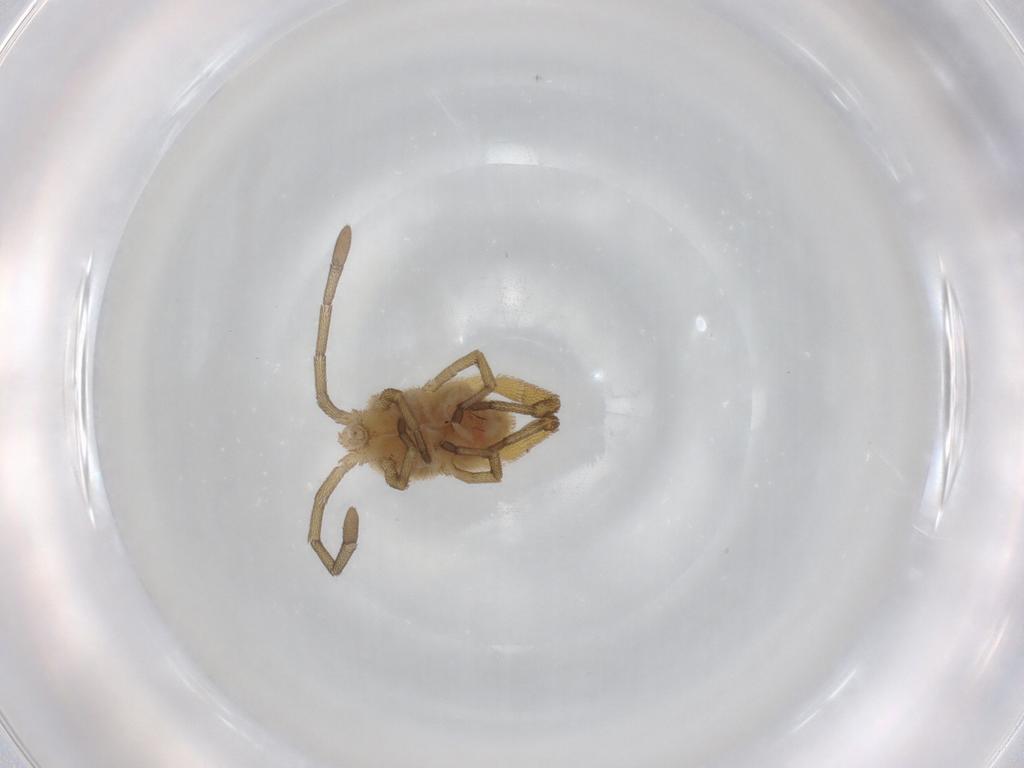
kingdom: Animalia
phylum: Arthropoda
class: Arachnida
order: Trombidiformes
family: Smarididae
